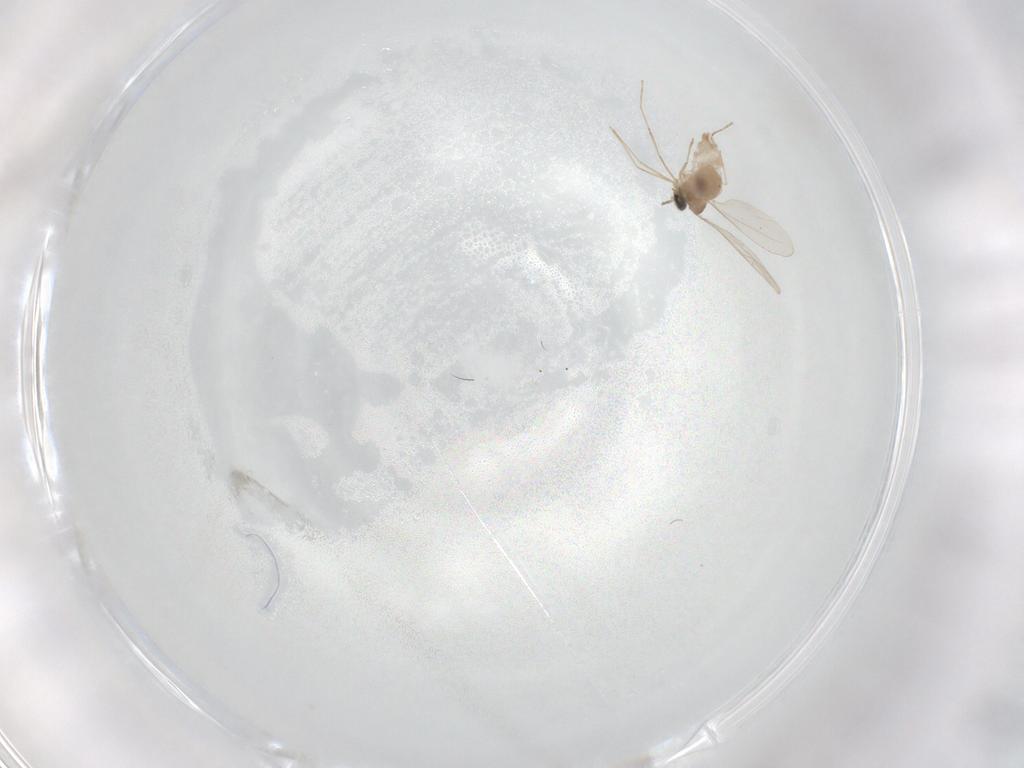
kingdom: Animalia
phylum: Arthropoda
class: Insecta
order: Diptera
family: Cecidomyiidae
